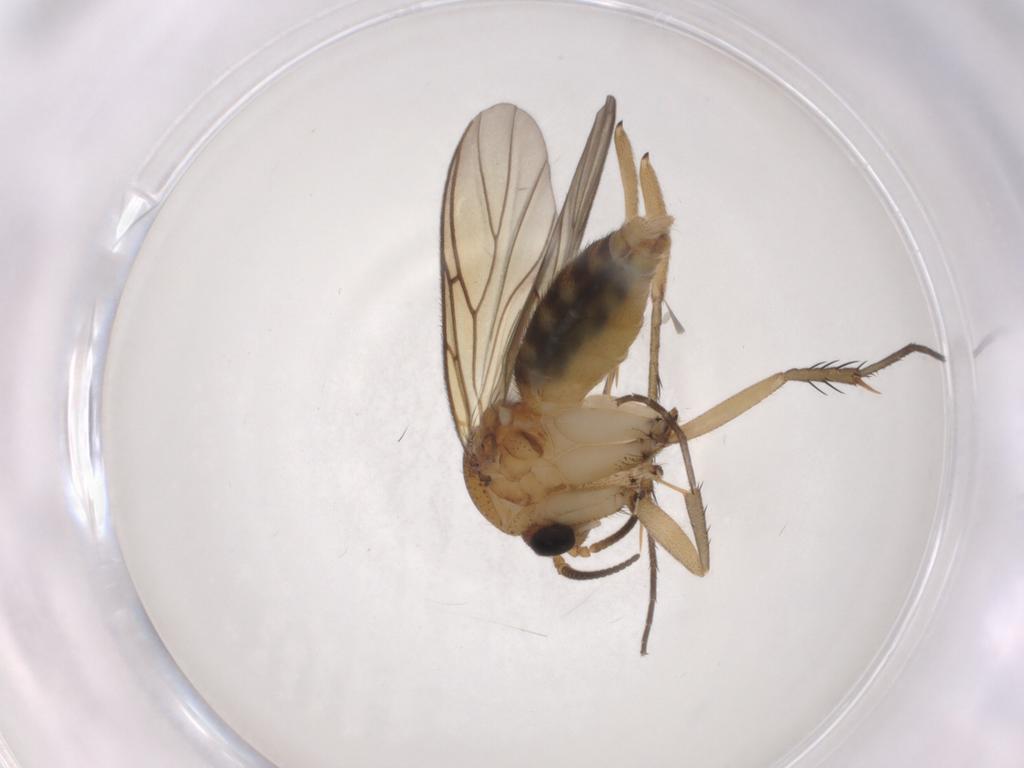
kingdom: Animalia
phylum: Arthropoda
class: Insecta
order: Diptera
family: Mycetophilidae
